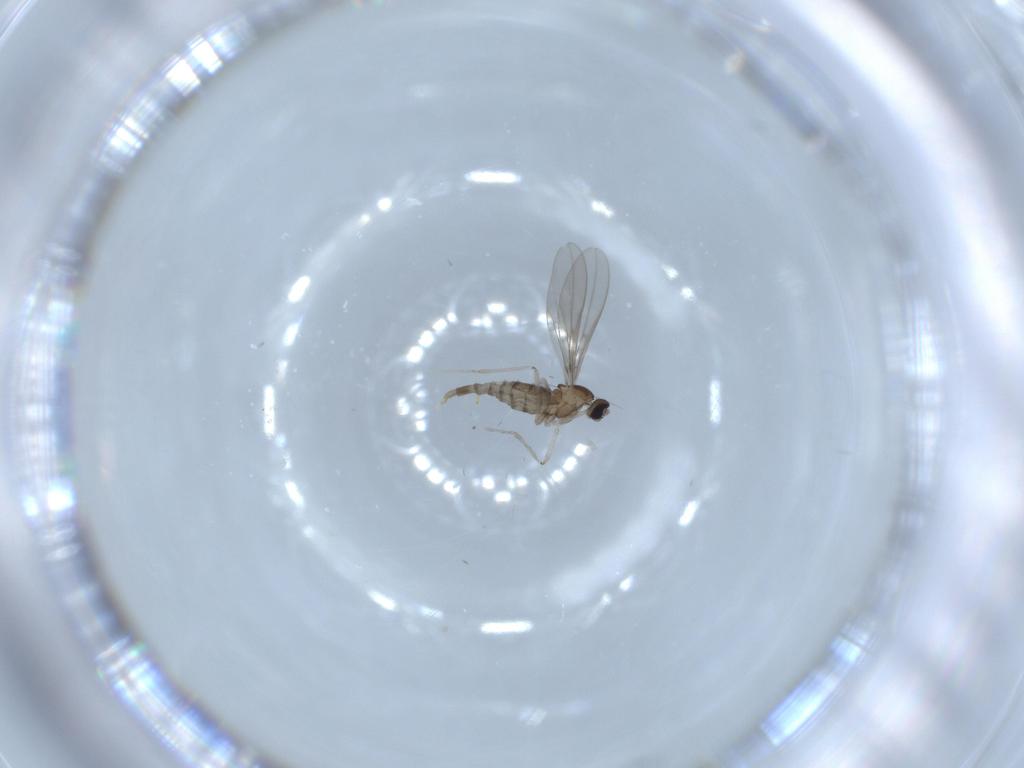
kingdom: Animalia
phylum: Arthropoda
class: Insecta
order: Diptera
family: Cecidomyiidae
